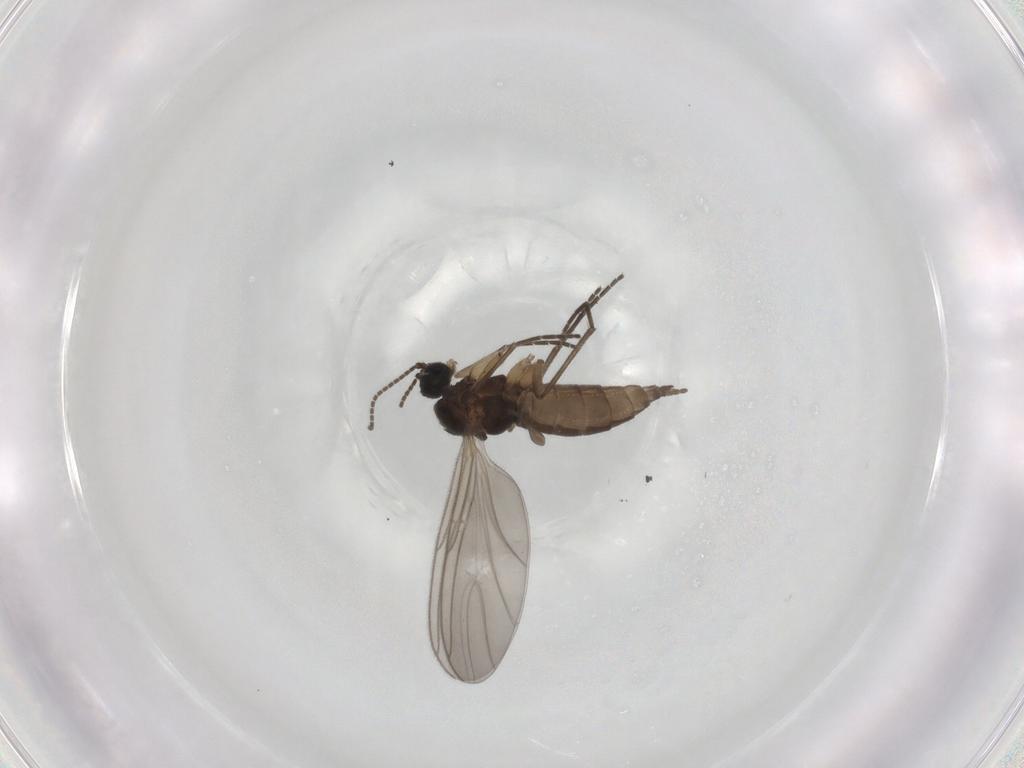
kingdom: Animalia
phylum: Arthropoda
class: Insecta
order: Diptera
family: Sciaridae
